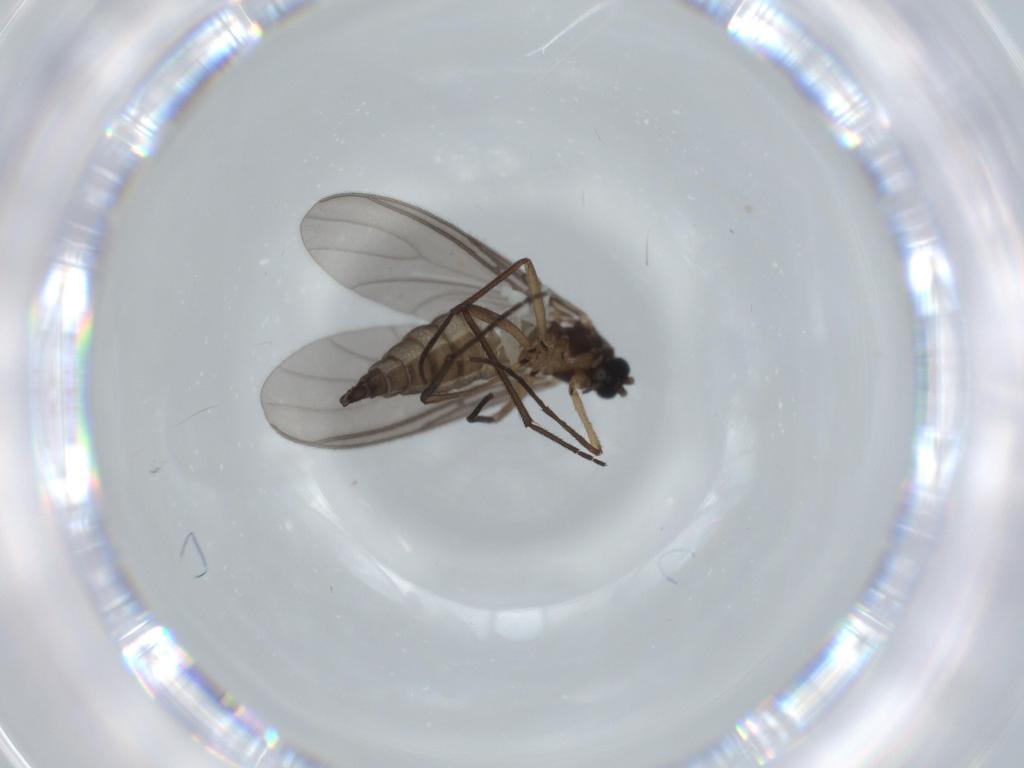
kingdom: Animalia
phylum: Arthropoda
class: Insecta
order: Diptera
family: Sciaridae
